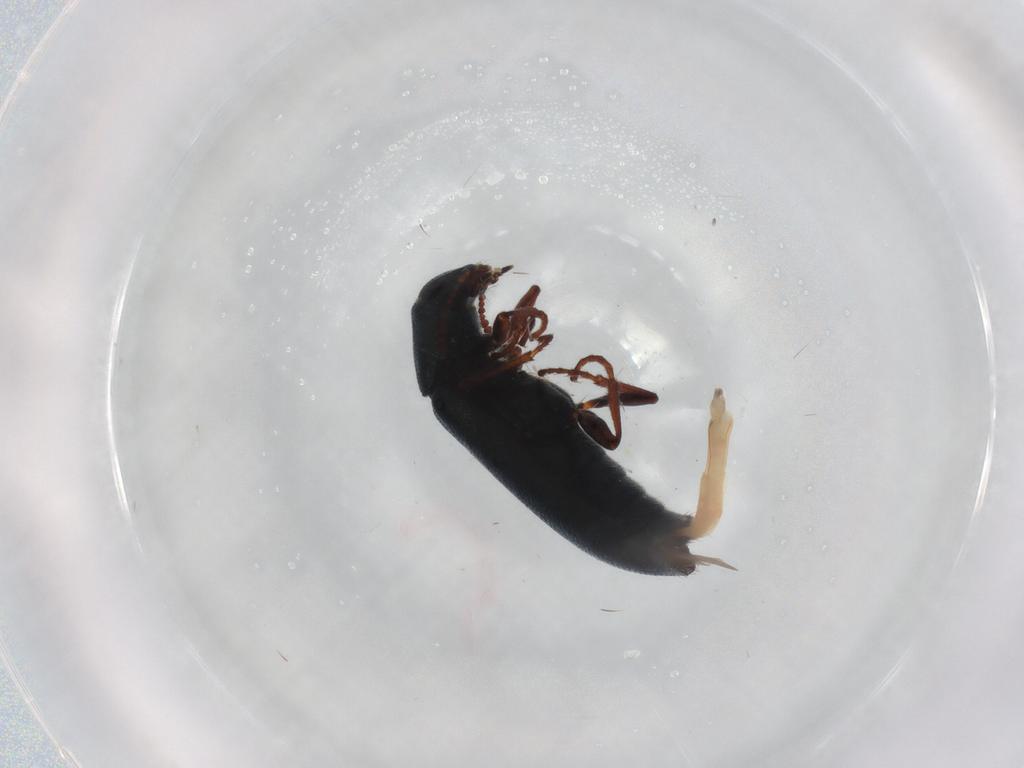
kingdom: Animalia
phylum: Arthropoda
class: Insecta
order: Coleoptera
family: Melyridae
